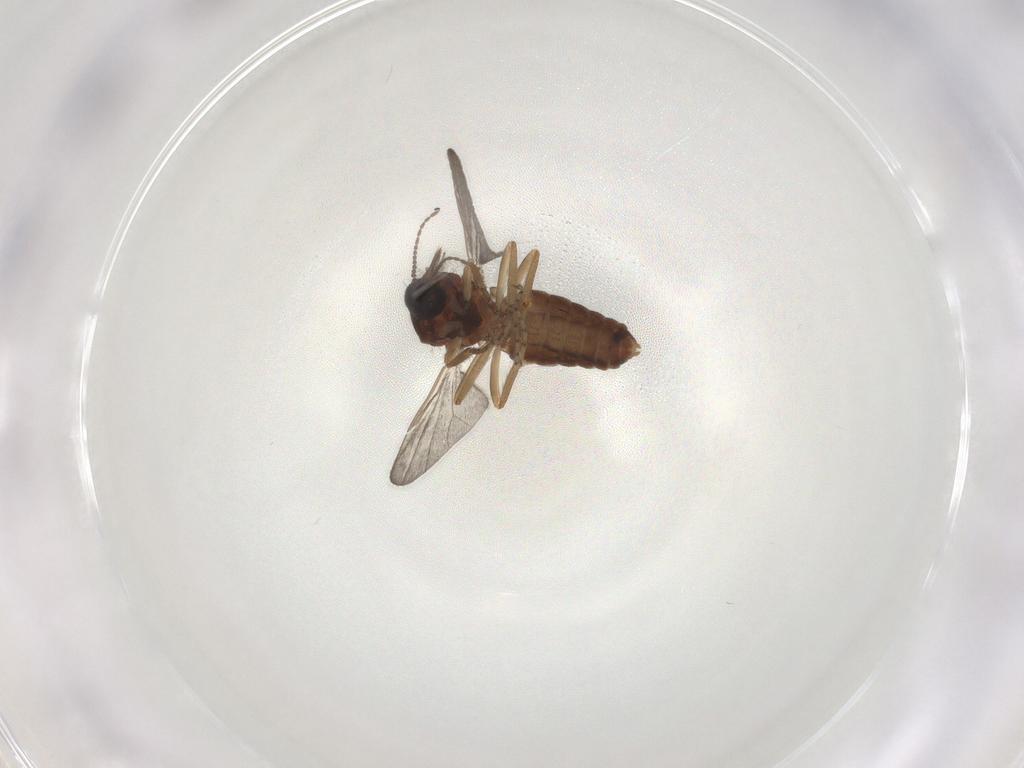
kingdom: Animalia
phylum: Arthropoda
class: Insecta
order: Diptera
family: Ceratopogonidae
